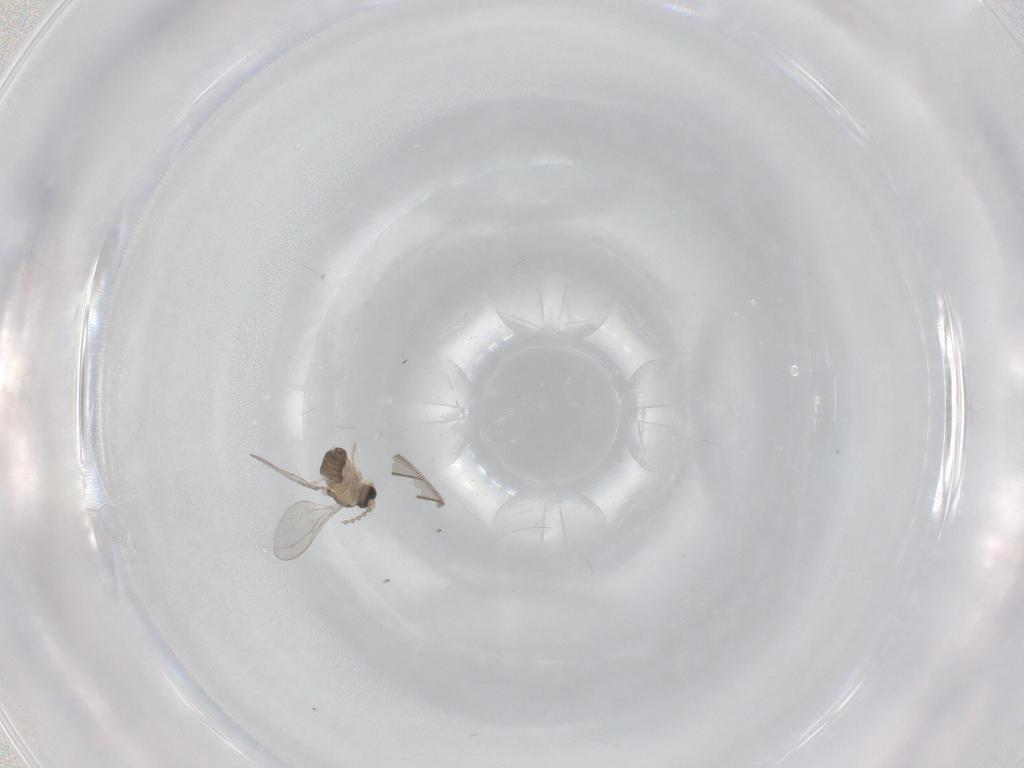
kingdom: Animalia
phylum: Arthropoda
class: Insecta
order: Diptera
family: Cecidomyiidae
